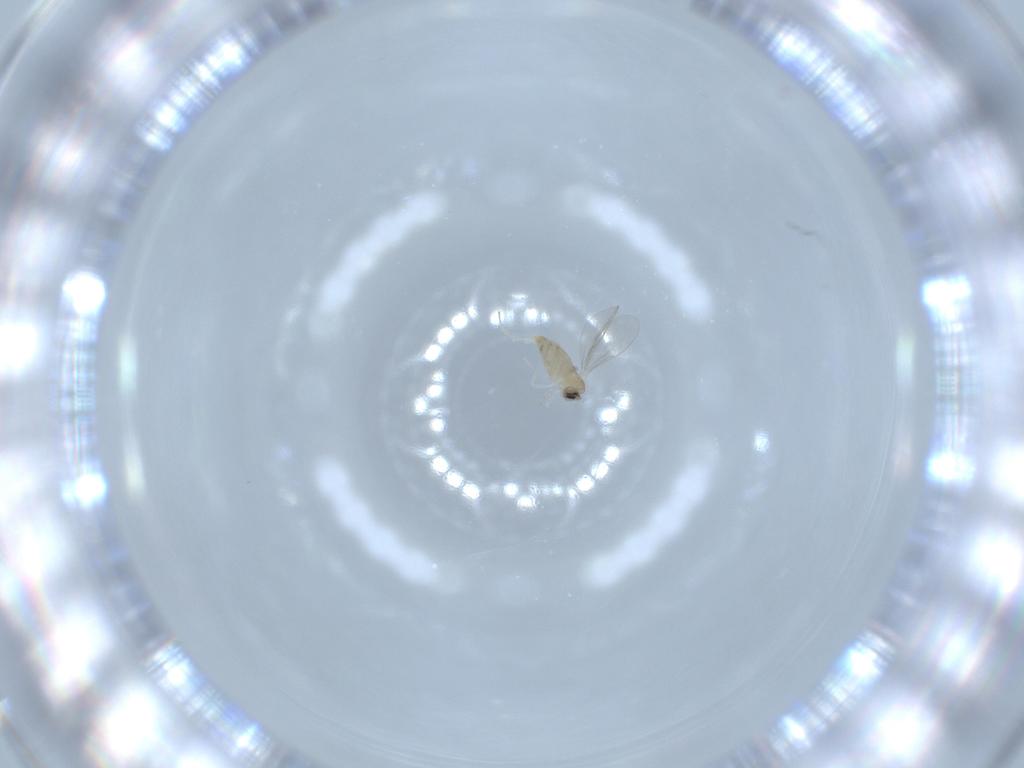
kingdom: Animalia
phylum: Arthropoda
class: Insecta
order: Diptera
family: Cecidomyiidae
